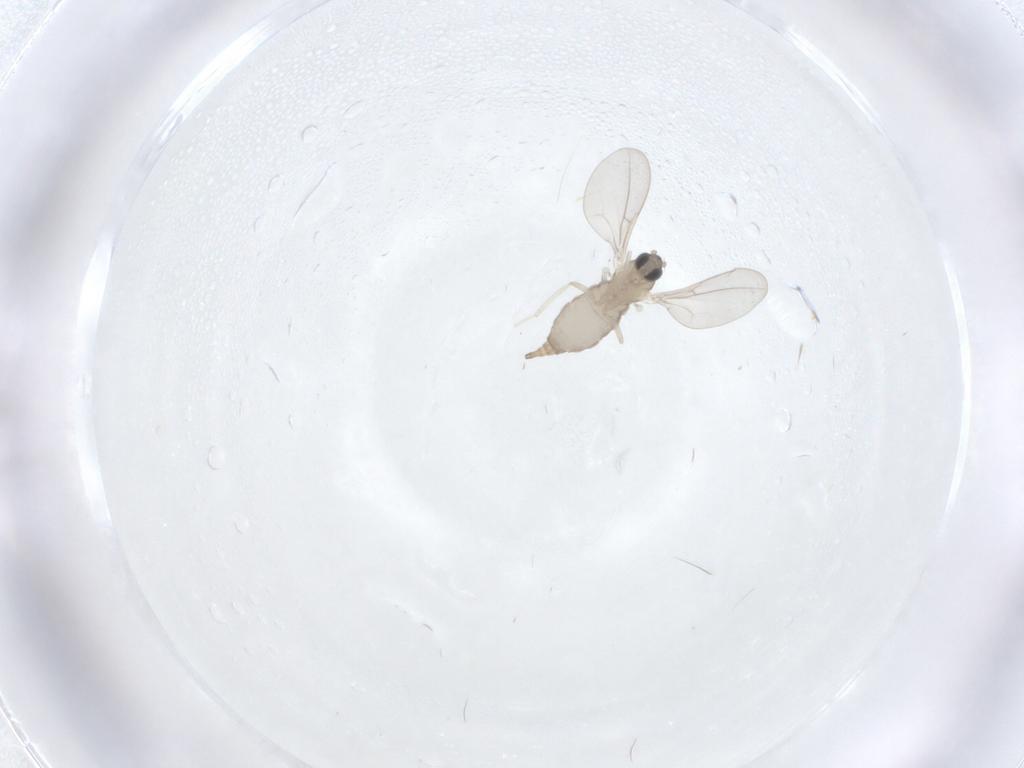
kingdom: Animalia
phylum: Arthropoda
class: Insecta
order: Diptera
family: Cecidomyiidae
